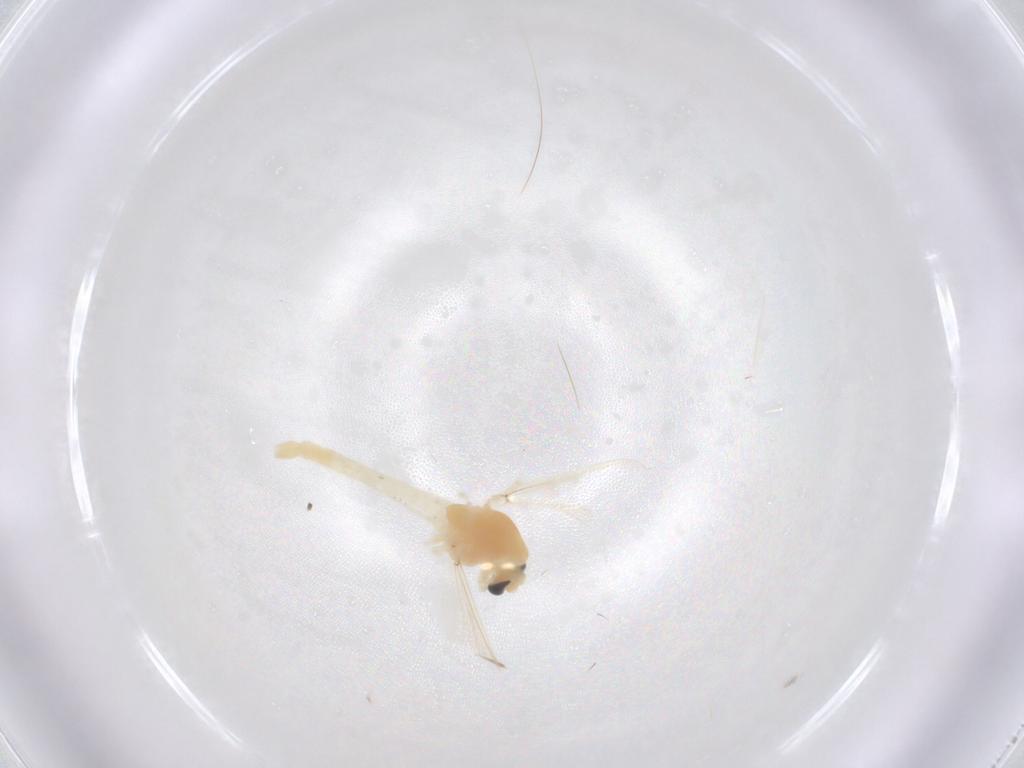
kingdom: Animalia
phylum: Arthropoda
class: Insecta
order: Diptera
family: Chironomidae
